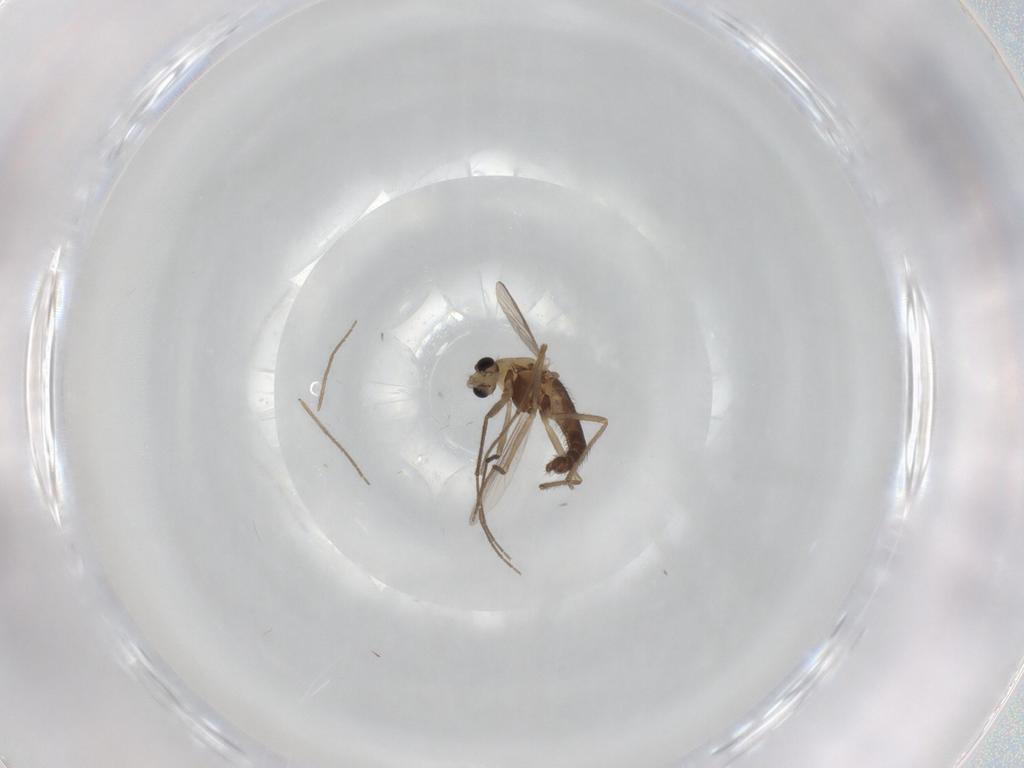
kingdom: Animalia
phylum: Arthropoda
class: Insecta
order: Diptera
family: Chironomidae
